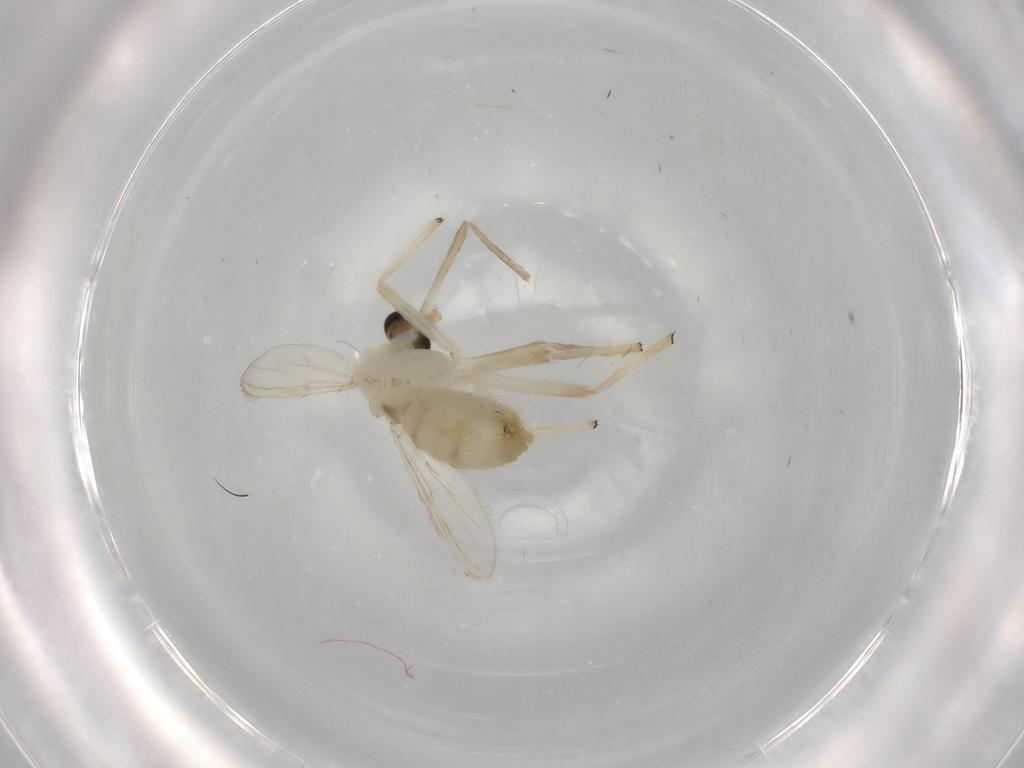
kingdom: Animalia
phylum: Arthropoda
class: Insecta
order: Diptera
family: Chironomidae
